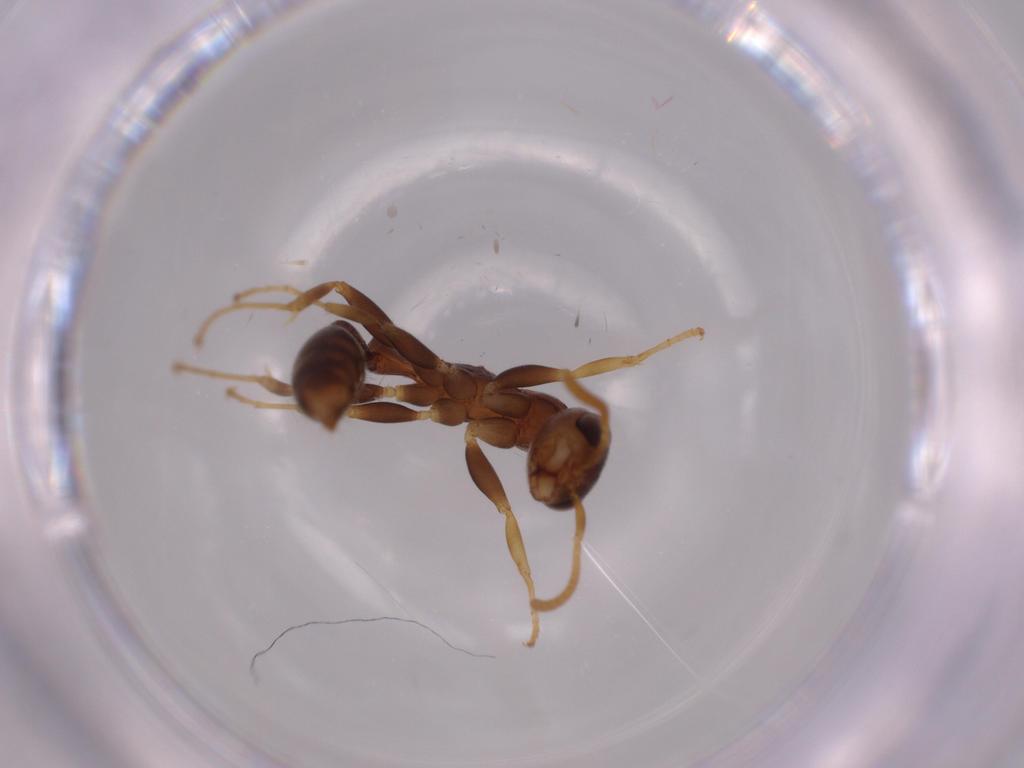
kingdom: Animalia
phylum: Arthropoda
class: Insecta
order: Hymenoptera
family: Formicidae
